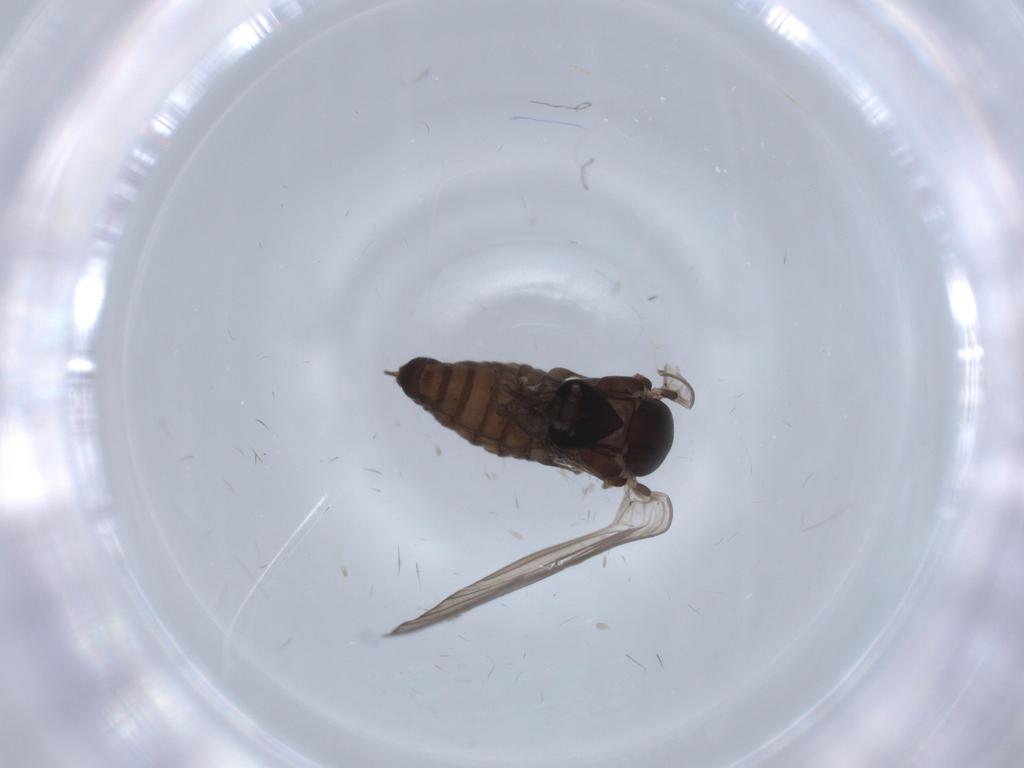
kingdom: Animalia
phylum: Arthropoda
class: Insecta
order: Diptera
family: Psychodidae
